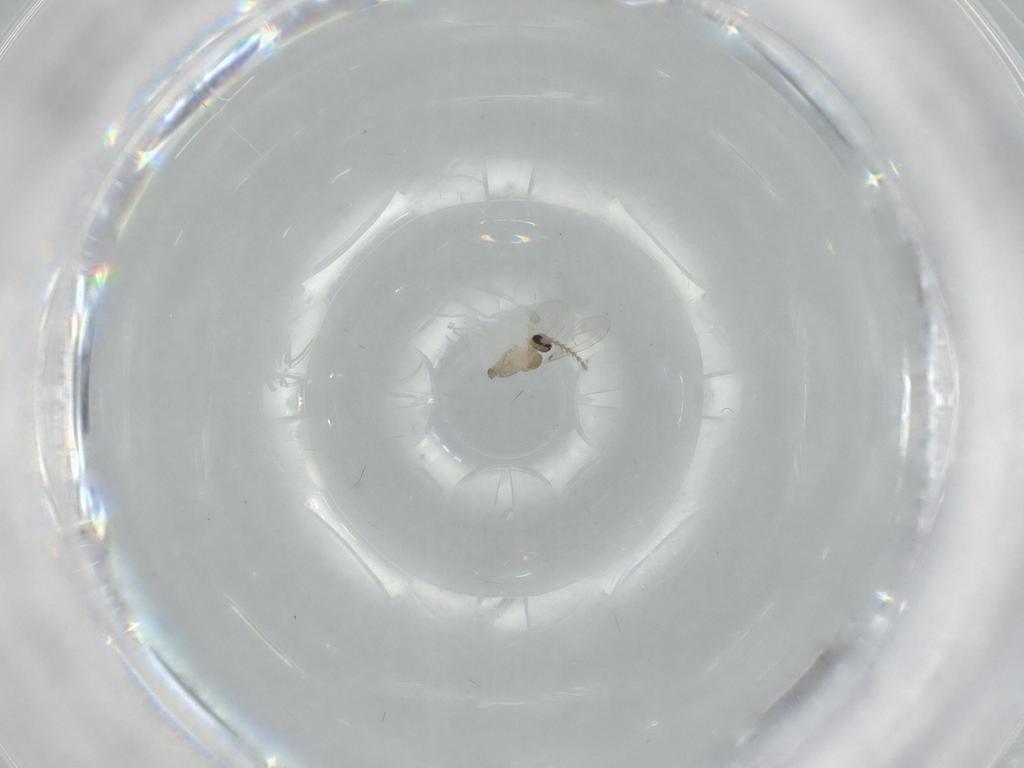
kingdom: Animalia
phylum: Arthropoda
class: Insecta
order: Diptera
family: Cecidomyiidae
